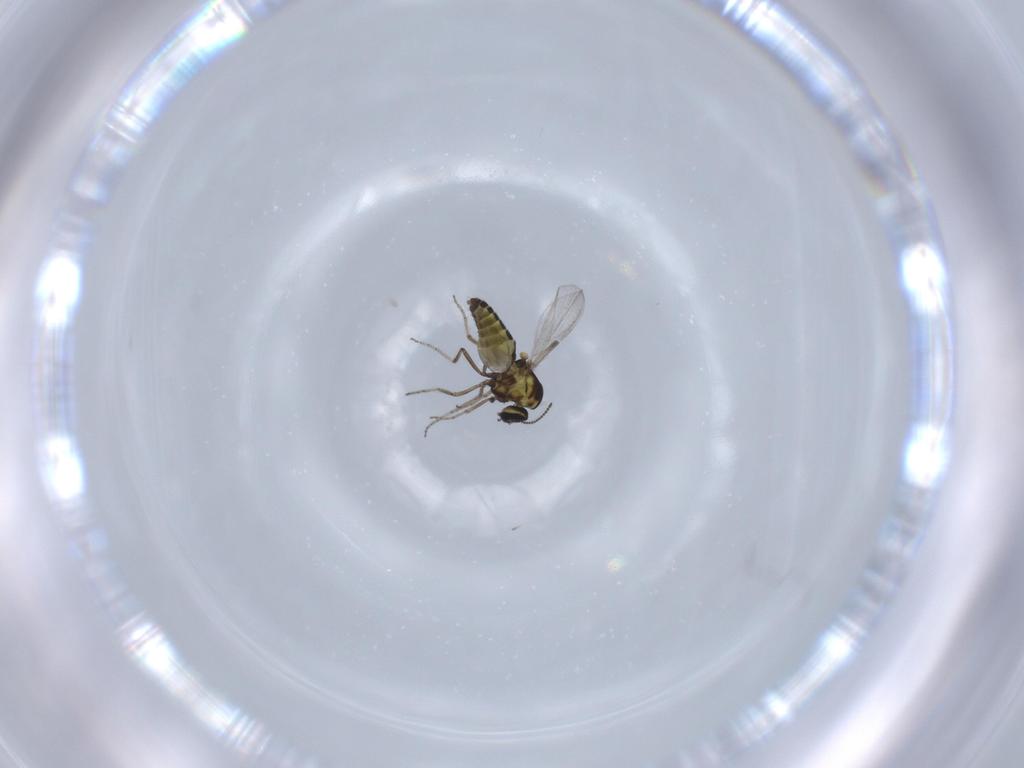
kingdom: Animalia
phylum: Arthropoda
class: Insecta
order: Diptera
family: Ceratopogonidae
